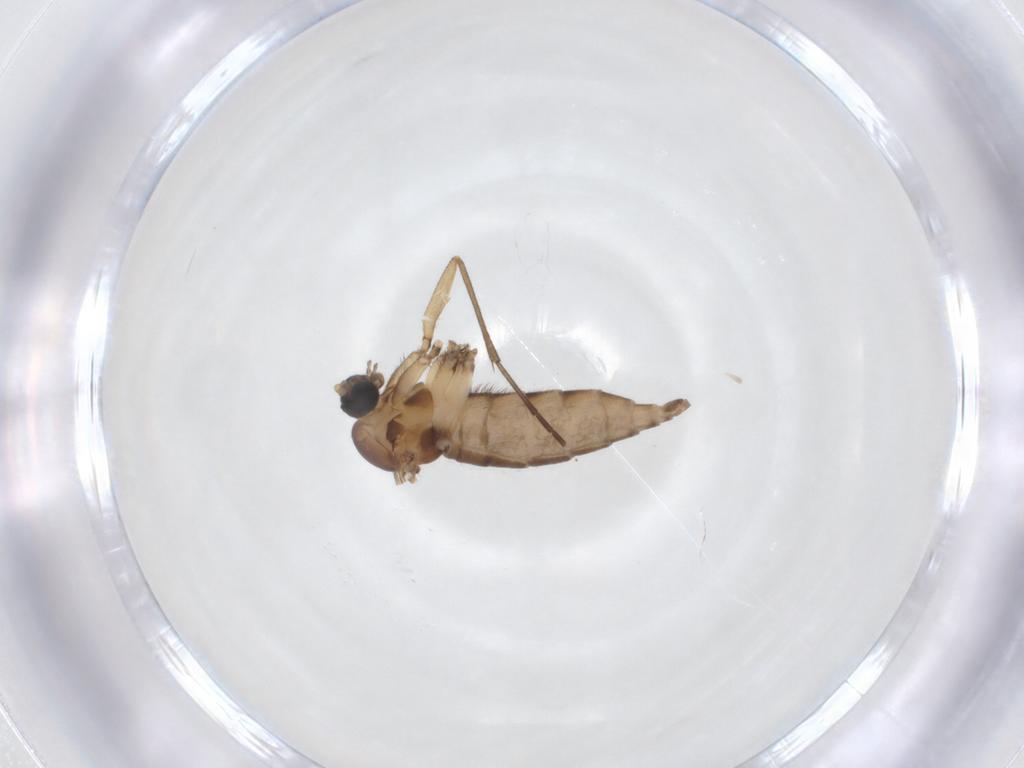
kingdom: Animalia
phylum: Arthropoda
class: Insecta
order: Diptera
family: Sciaridae
